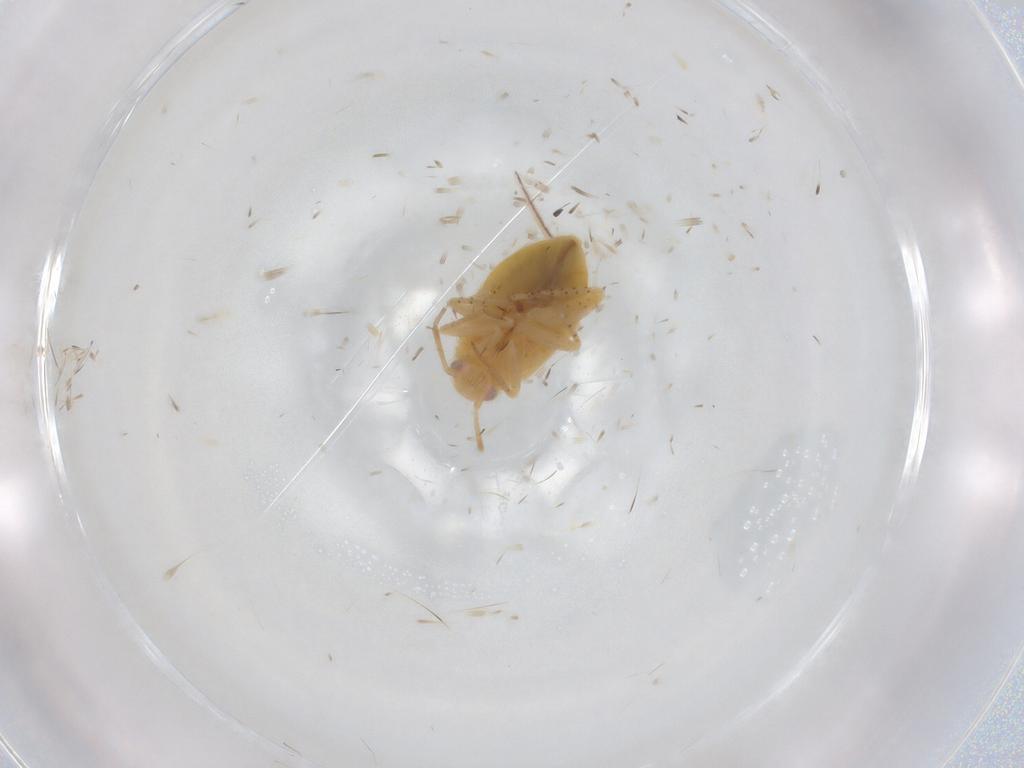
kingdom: Animalia
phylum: Arthropoda
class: Insecta
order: Hemiptera
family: Miridae
